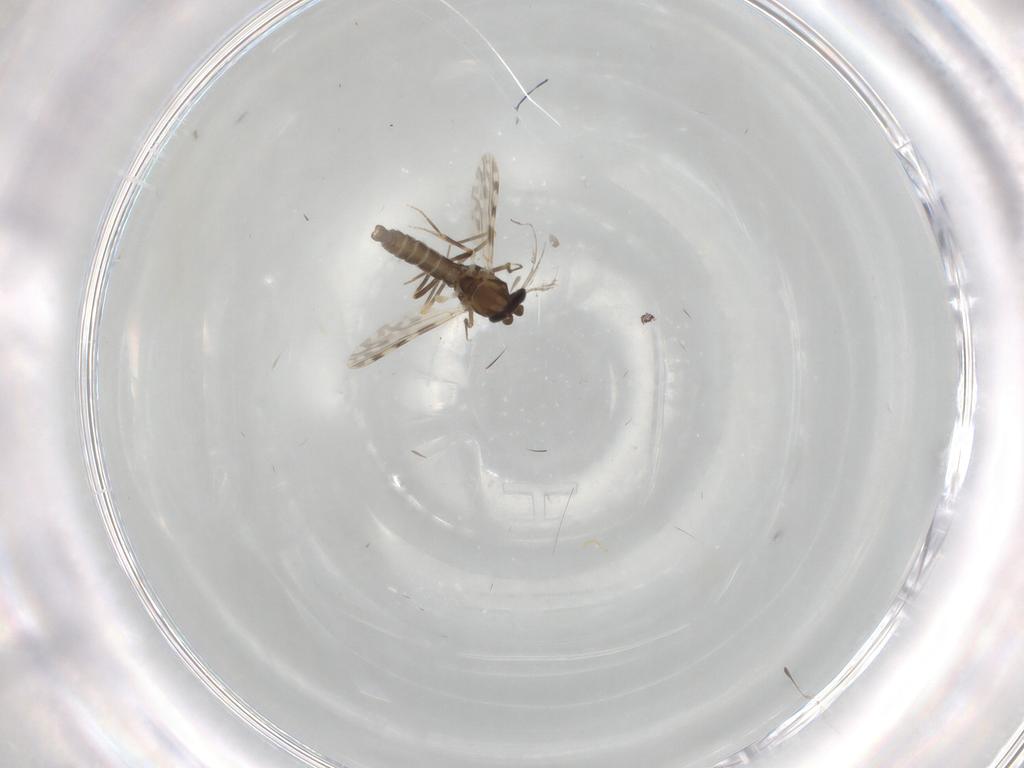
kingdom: Animalia
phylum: Arthropoda
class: Insecta
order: Diptera
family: Ceratopogonidae
